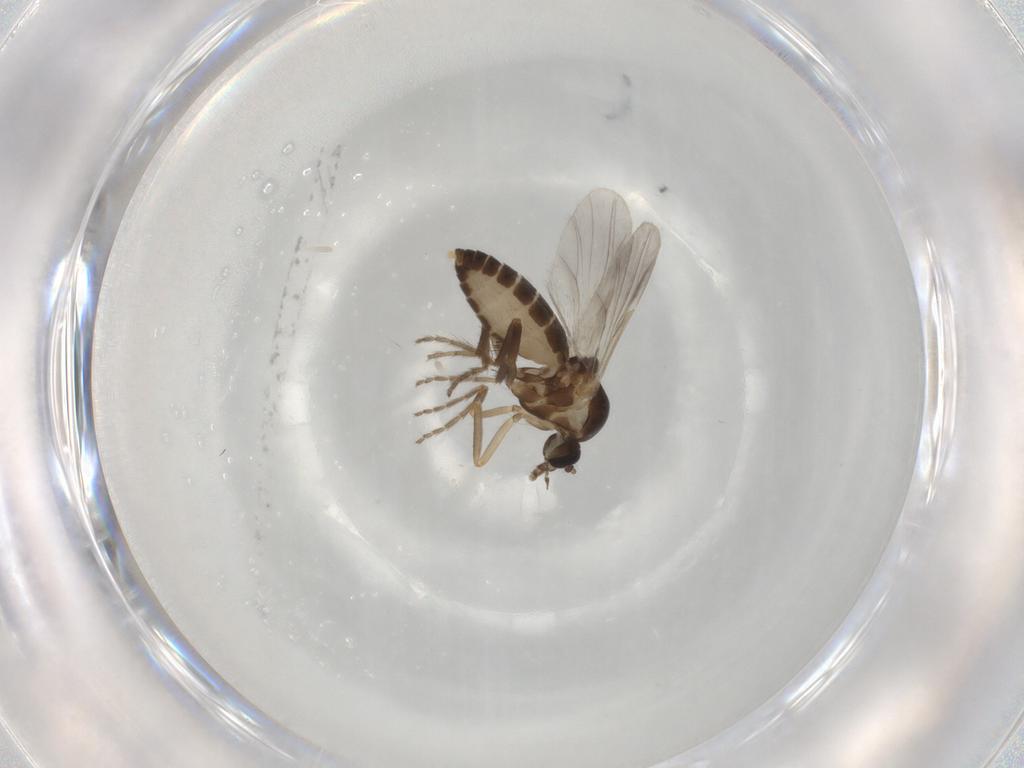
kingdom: Animalia
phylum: Arthropoda
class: Insecta
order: Diptera
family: Ceratopogonidae
